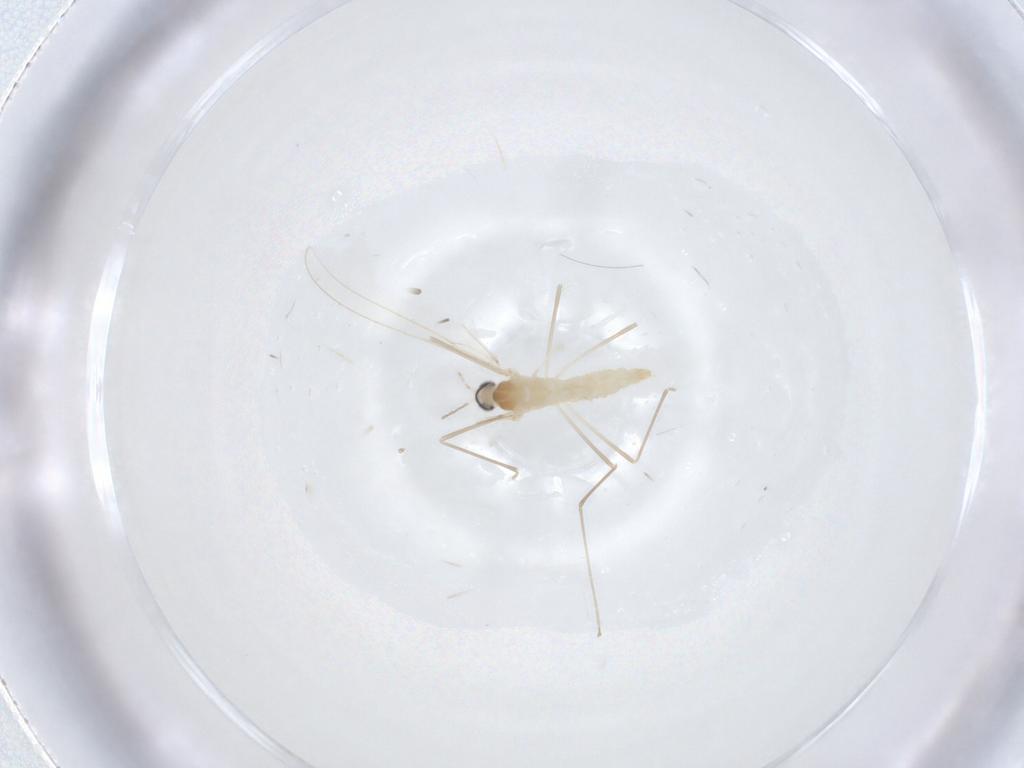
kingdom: Animalia
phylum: Arthropoda
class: Insecta
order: Diptera
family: Cecidomyiidae
